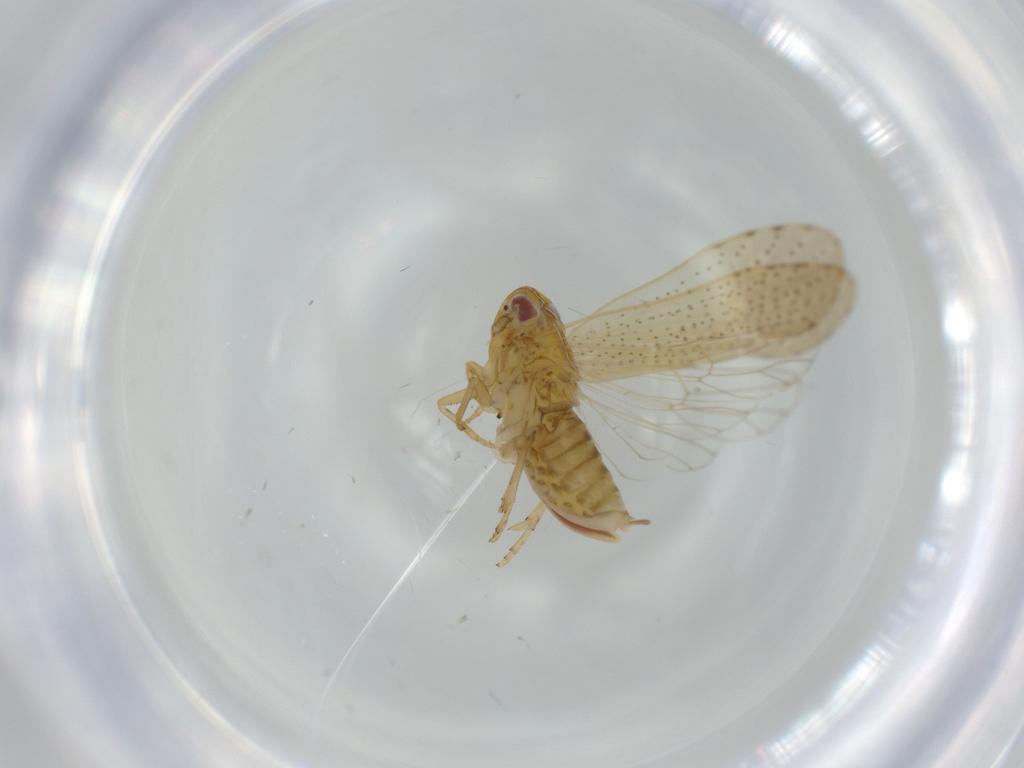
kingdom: Animalia
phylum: Arthropoda
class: Insecta
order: Hemiptera
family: Delphacidae
